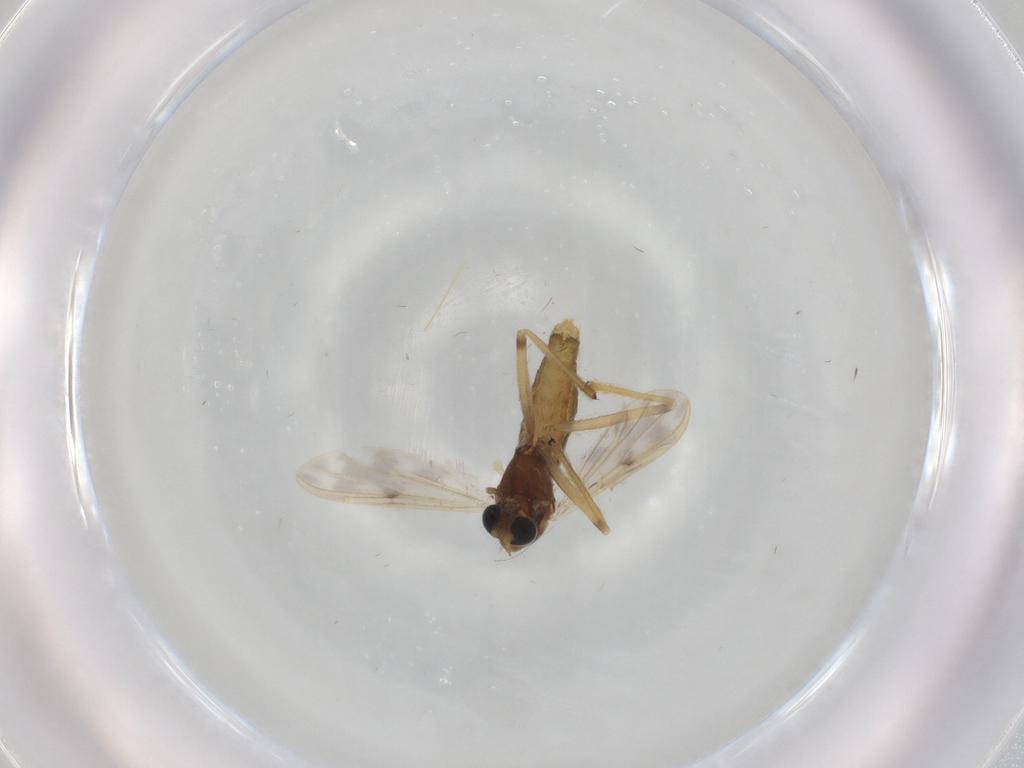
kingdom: Animalia
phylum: Arthropoda
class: Insecta
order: Diptera
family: Chironomidae
